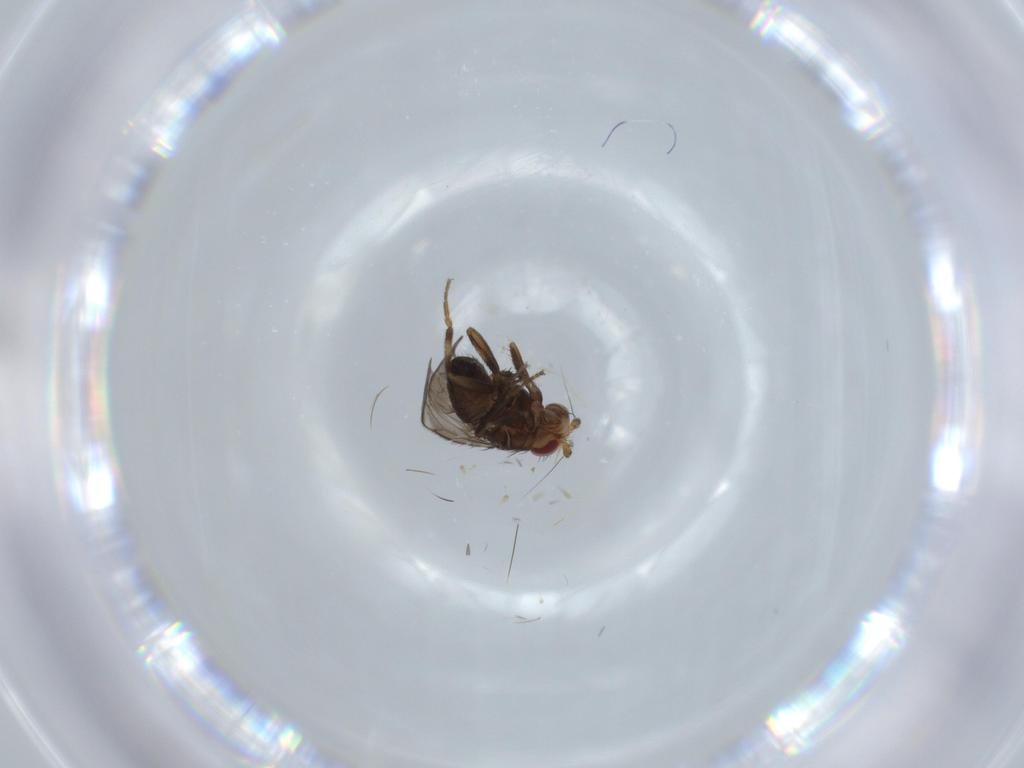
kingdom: Animalia
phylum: Arthropoda
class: Insecta
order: Diptera
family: Cecidomyiidae
